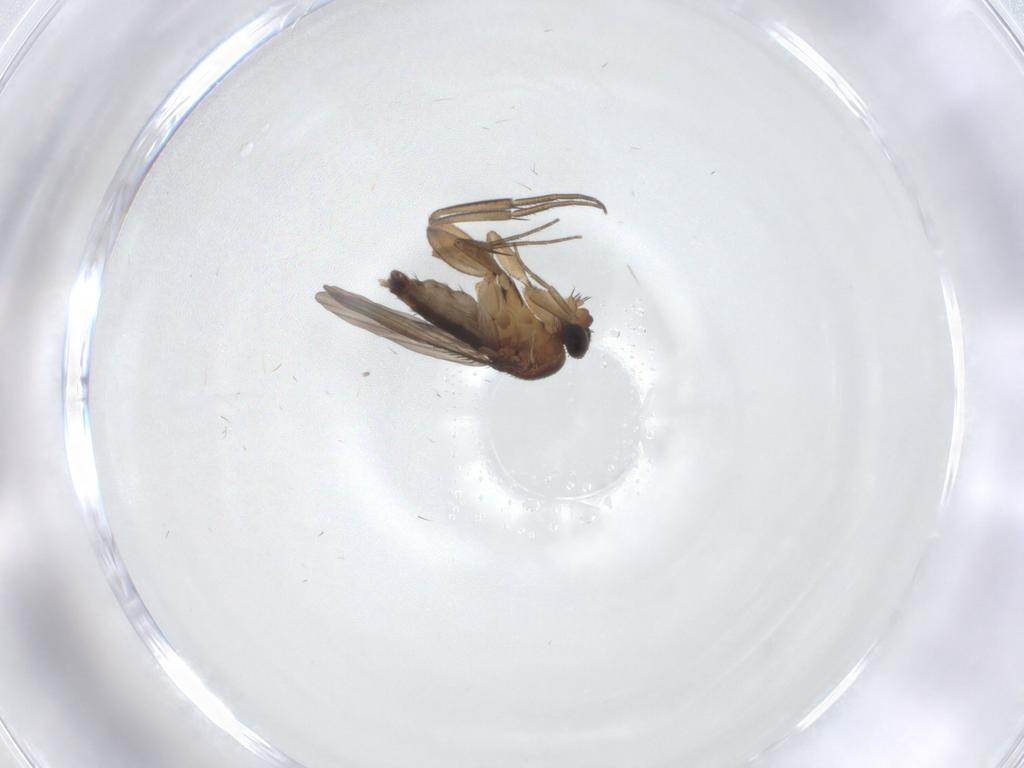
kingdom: Animalia
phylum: Arthropoda
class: Insecta
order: Diptera
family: Phoridae
